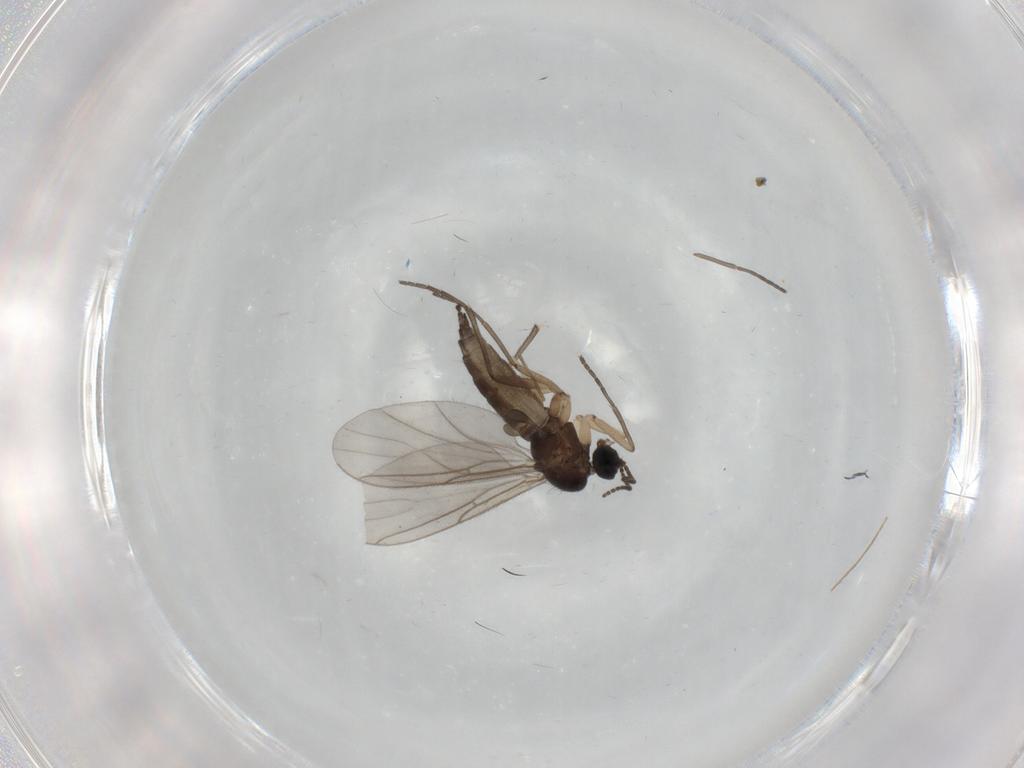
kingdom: Animalia
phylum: Arthropoda
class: Insecta
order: Diptera
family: Sciaridae
